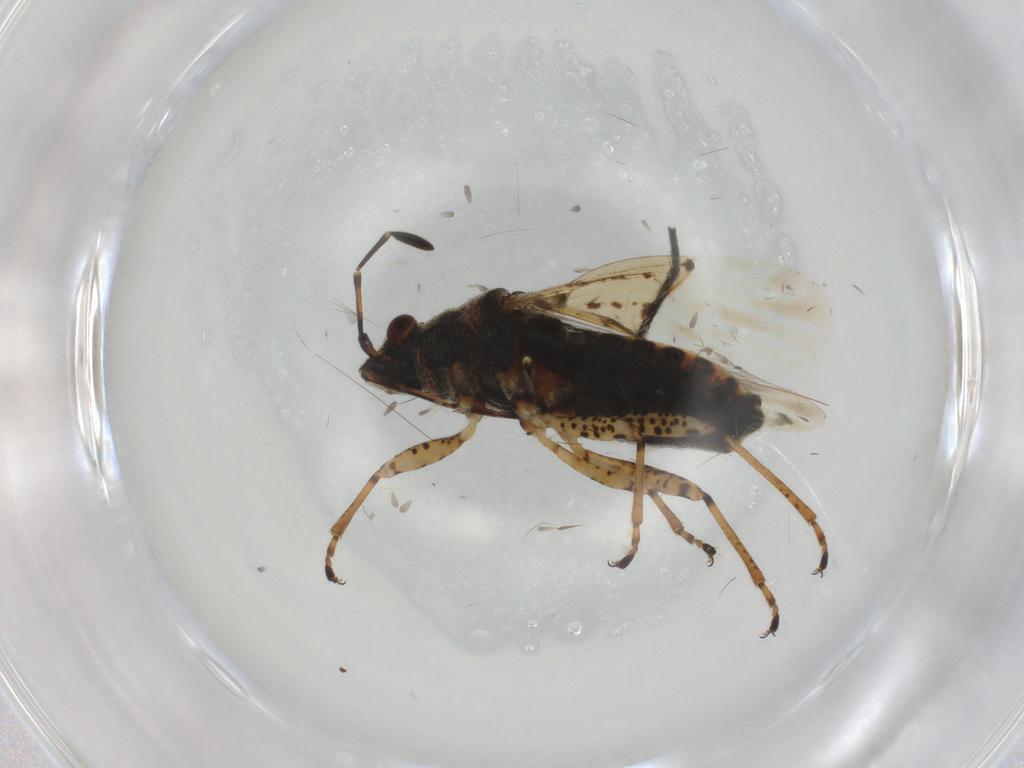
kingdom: Animalia
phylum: Arthropoda
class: Insecta
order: Hemiptera
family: Lygaeidae
